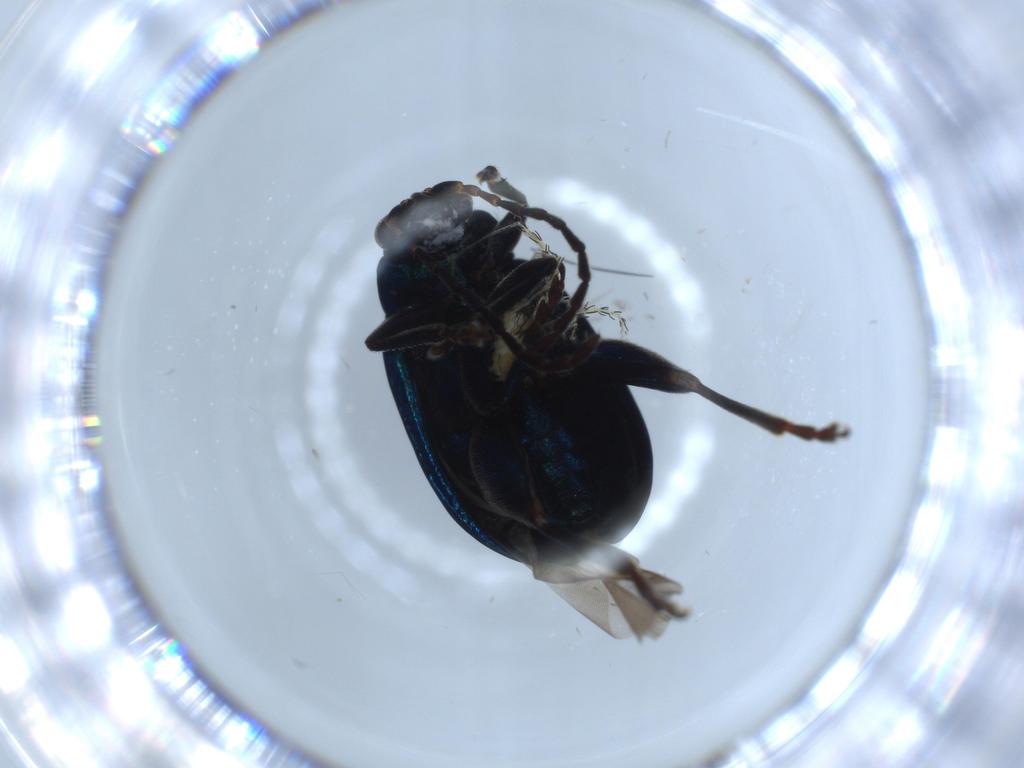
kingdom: Animalia
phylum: Arthropoda
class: Insecta
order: Coleoptera
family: Chrysomelidae
